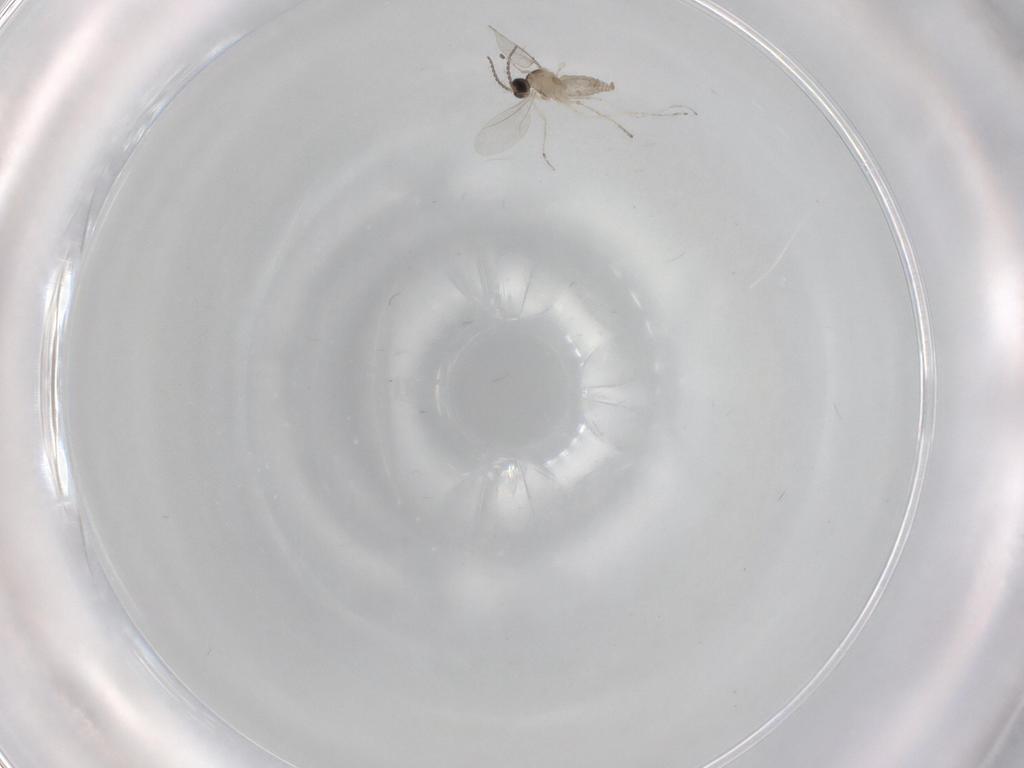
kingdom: Animalia
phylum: Arthropoda
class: Insecta
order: Diptera
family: Cecidomyiidae
